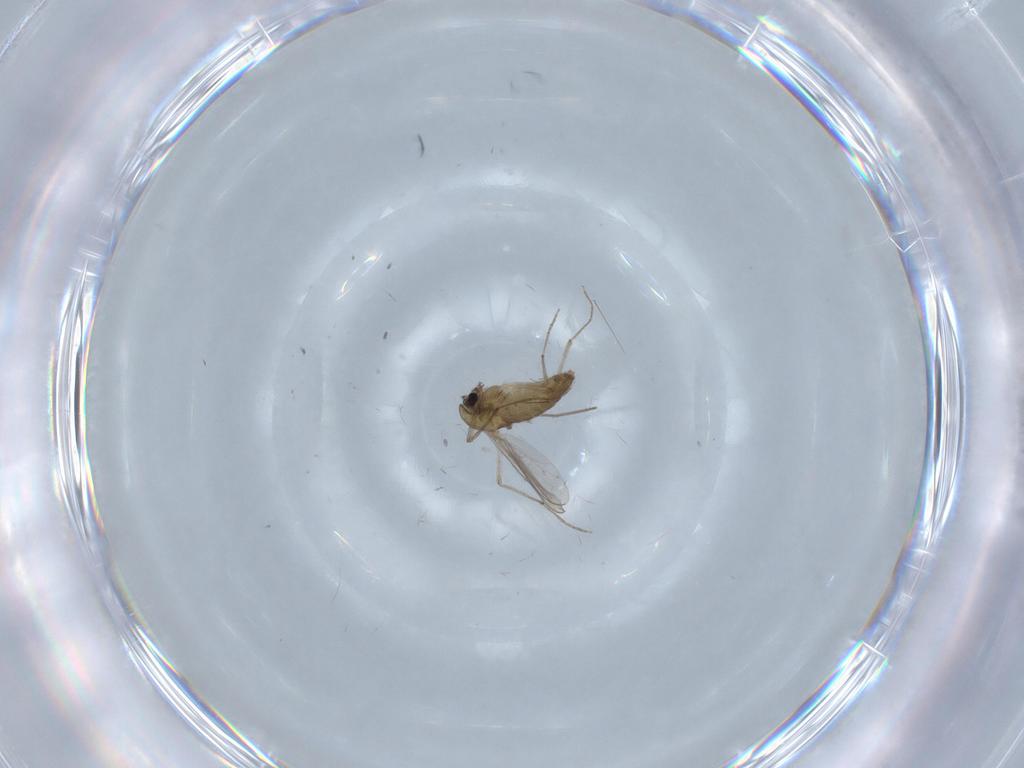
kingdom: Animalia
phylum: Arthropoda
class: Insecta
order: Diptera
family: Chironomidae
